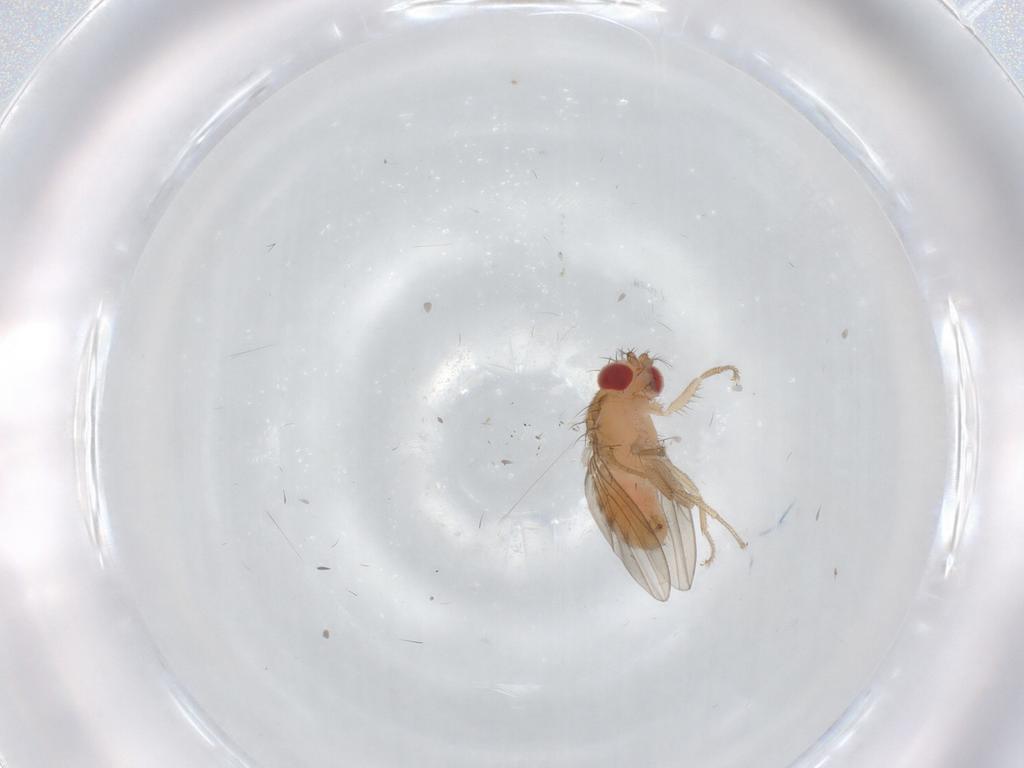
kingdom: Animalia
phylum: Arthropoda
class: Insecta
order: Diptera
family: Drosophilidae
